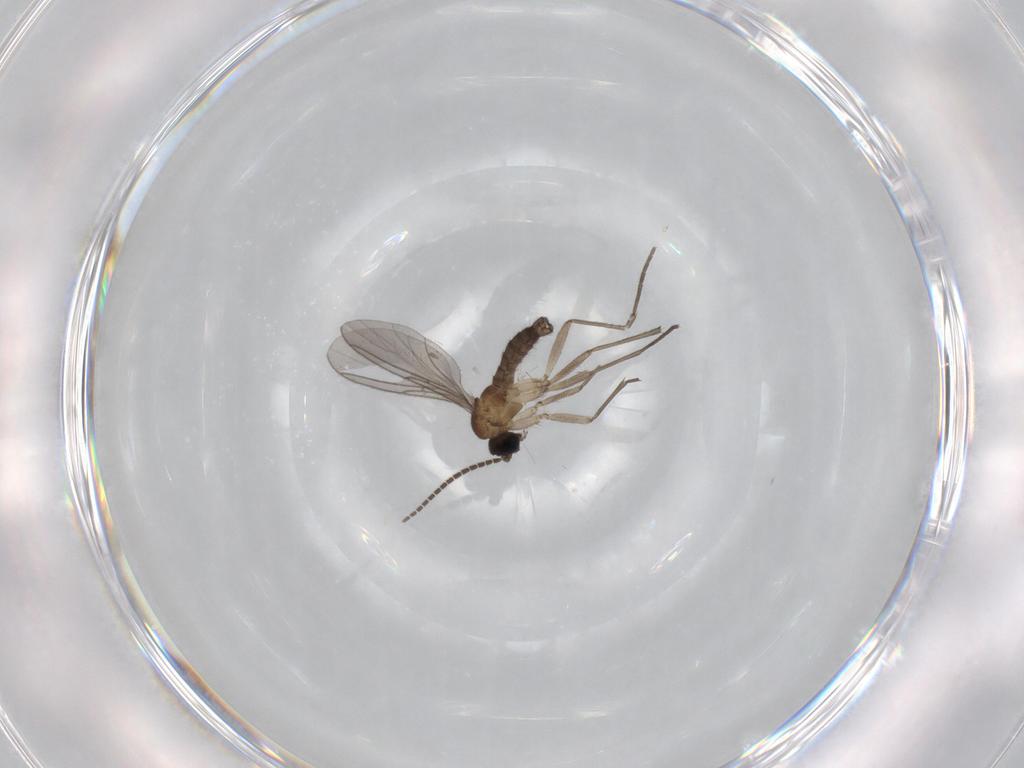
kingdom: Animalia
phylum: Arthropoda
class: Insecta
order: Diptera
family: Sciaridae
